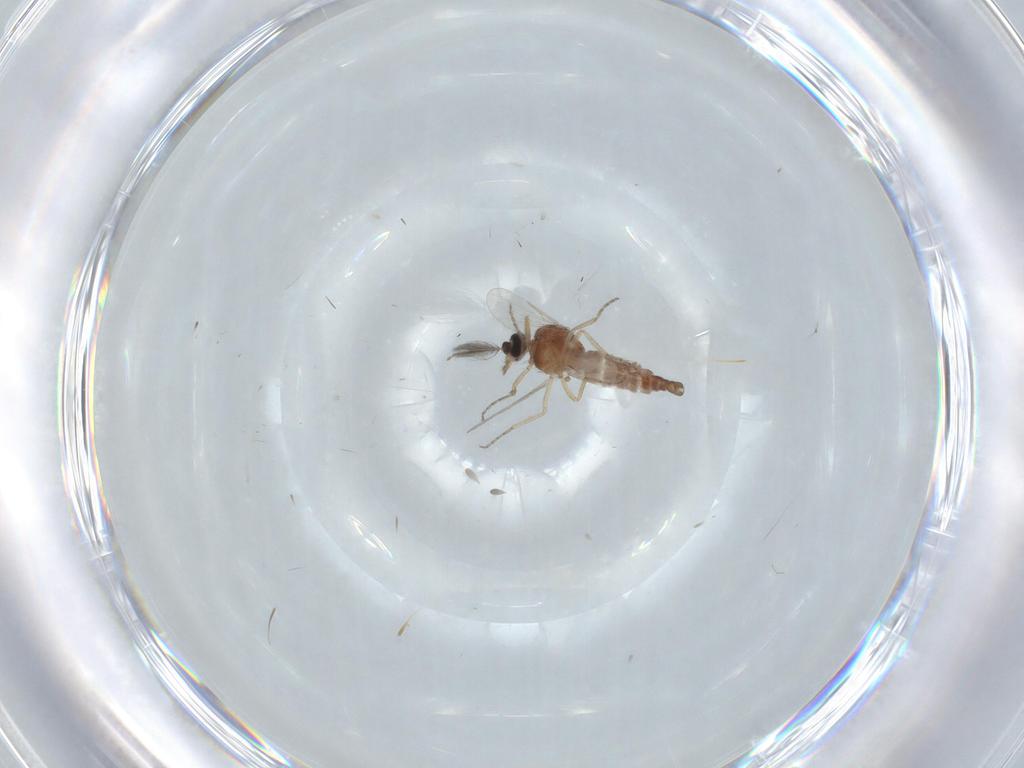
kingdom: Animalia
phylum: Arthropoda
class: Insecta
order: Diptera
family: Ceratopogonidae
